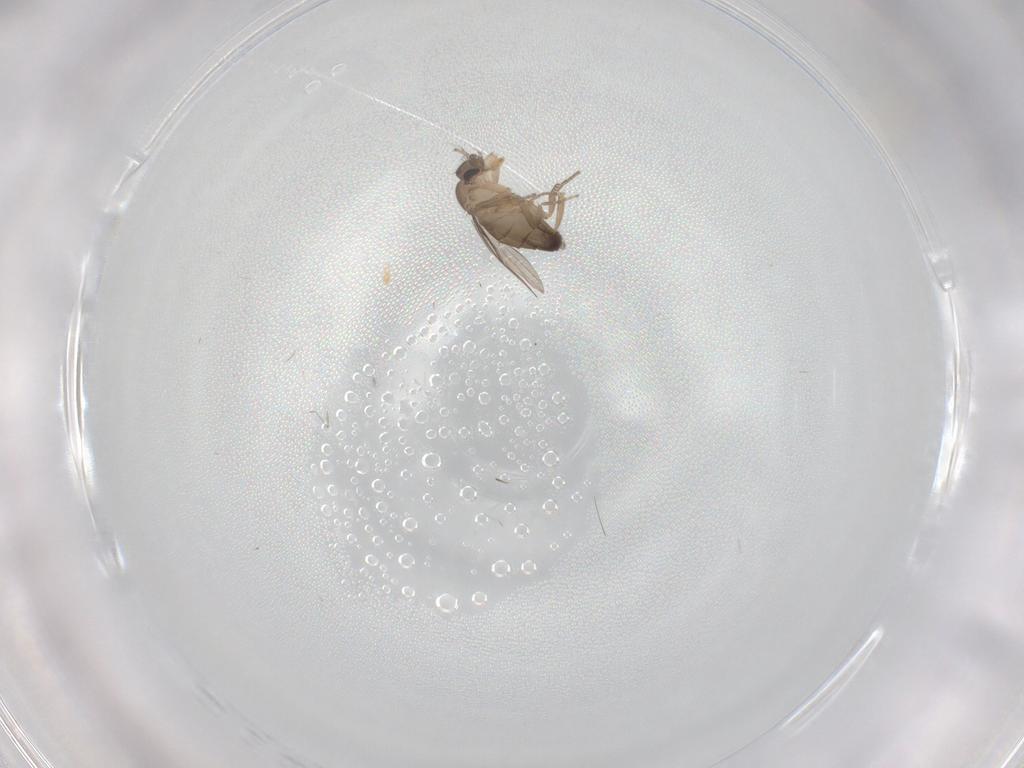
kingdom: Animalia
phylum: Arthropoda
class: Insecta
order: Diptera
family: Phoridae
